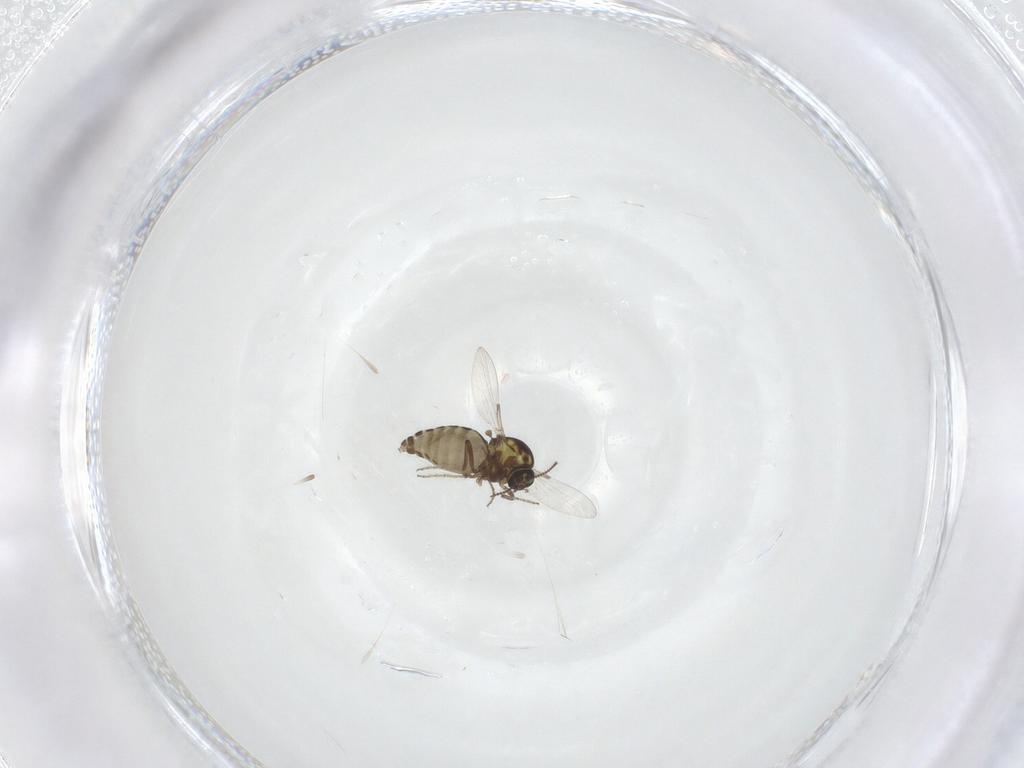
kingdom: Animalia
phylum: Arthropoda
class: Insecta
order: Diptera
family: Ceratopogonidae
